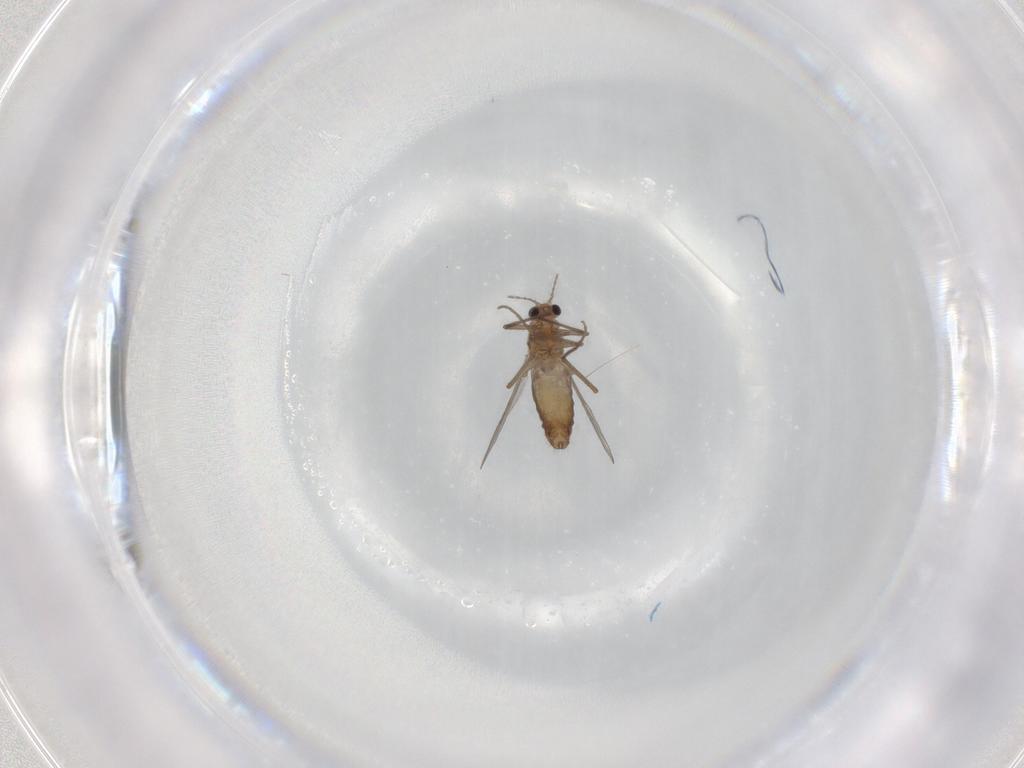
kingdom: Animalia
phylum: Arthropoda
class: Insecta
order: Diptera
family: Chironomidae
